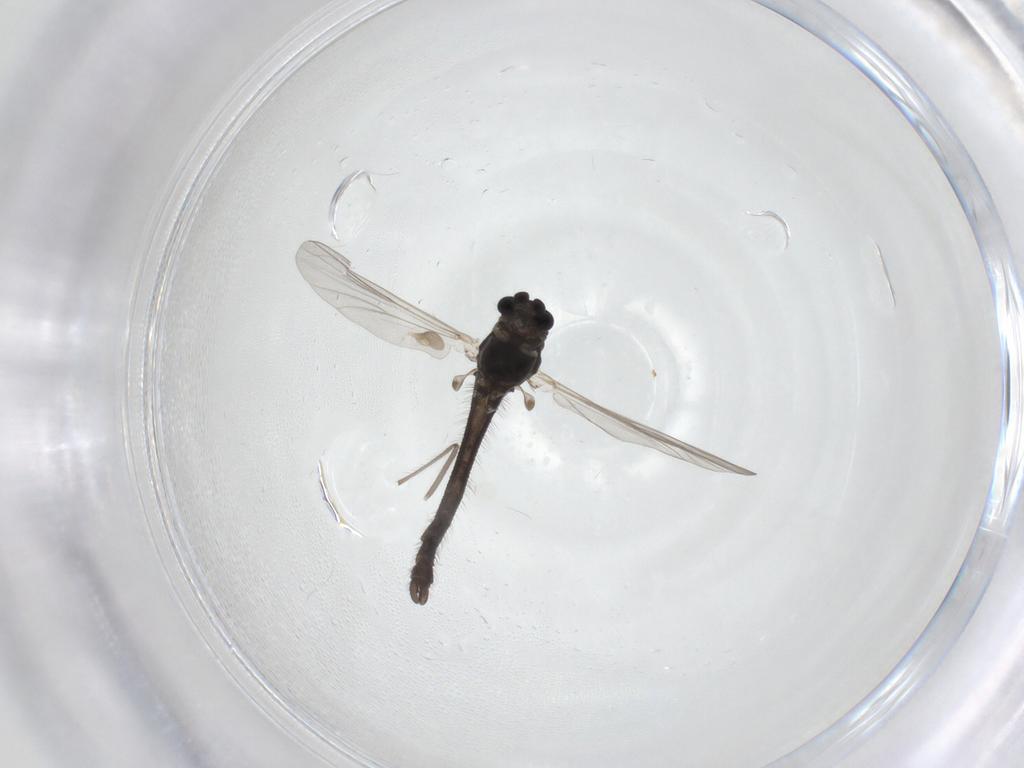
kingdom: Animalia
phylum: Arthropoda
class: Insecta
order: Diptera
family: Chironomidae
